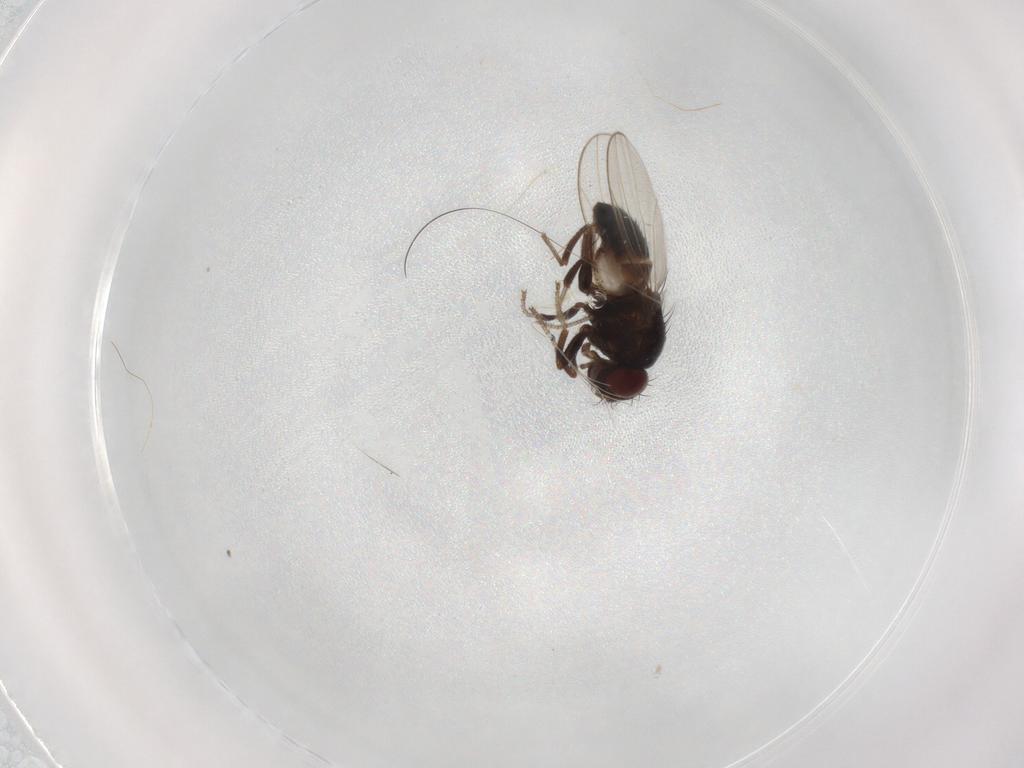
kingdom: Animalia
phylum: Arthropoda
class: Insecta
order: Diptera
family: Drosophilidae
